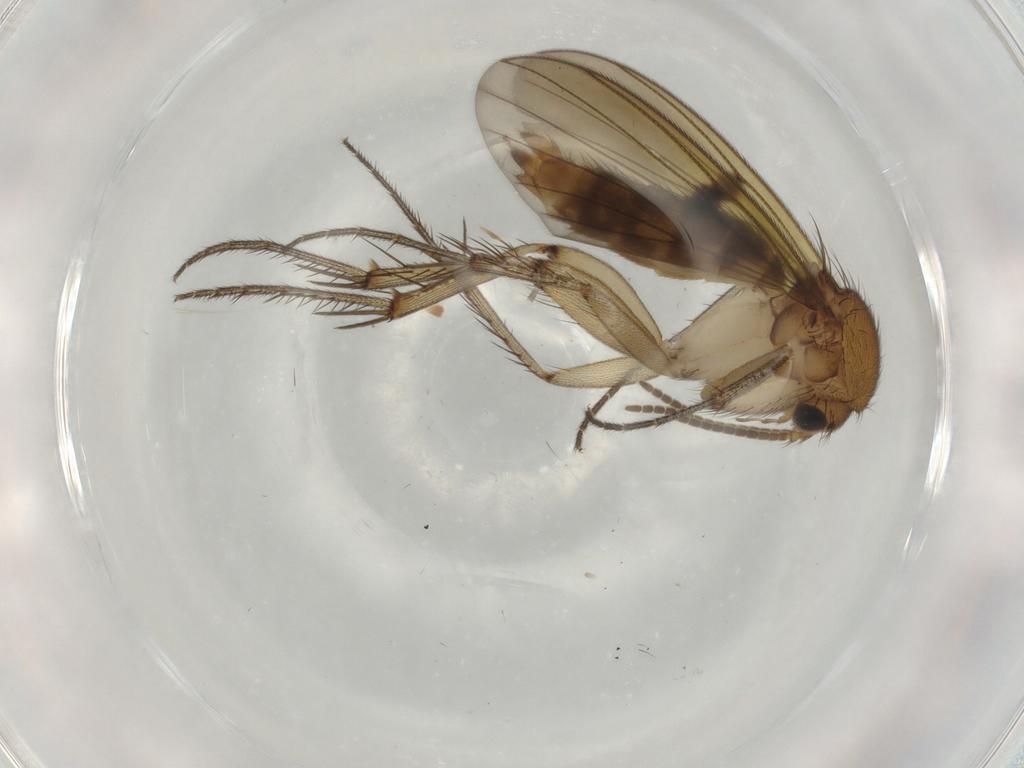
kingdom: Animalia
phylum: Arthropoda
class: Insecta
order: Diptera
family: Mycetophilidae
